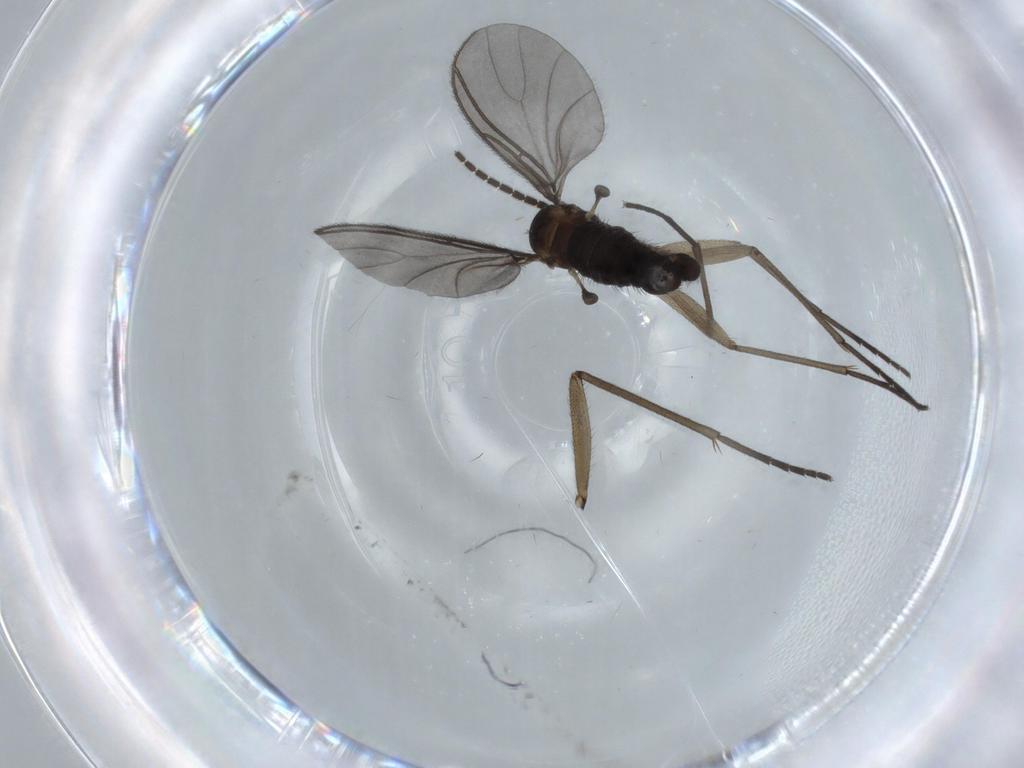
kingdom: Animalia
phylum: Arthropoda
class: Insecta
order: Diptera
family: Sciaridae
